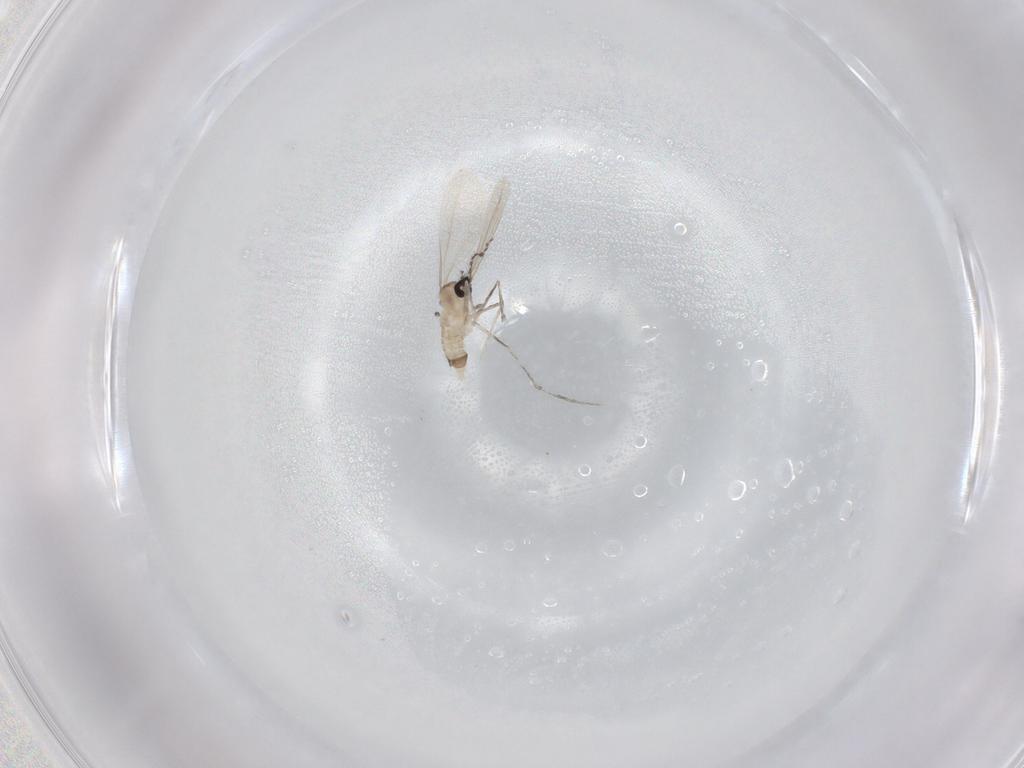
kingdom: Animalia
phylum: Arthropoda
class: Insecta
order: Diptera
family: Cecidomyiidae
